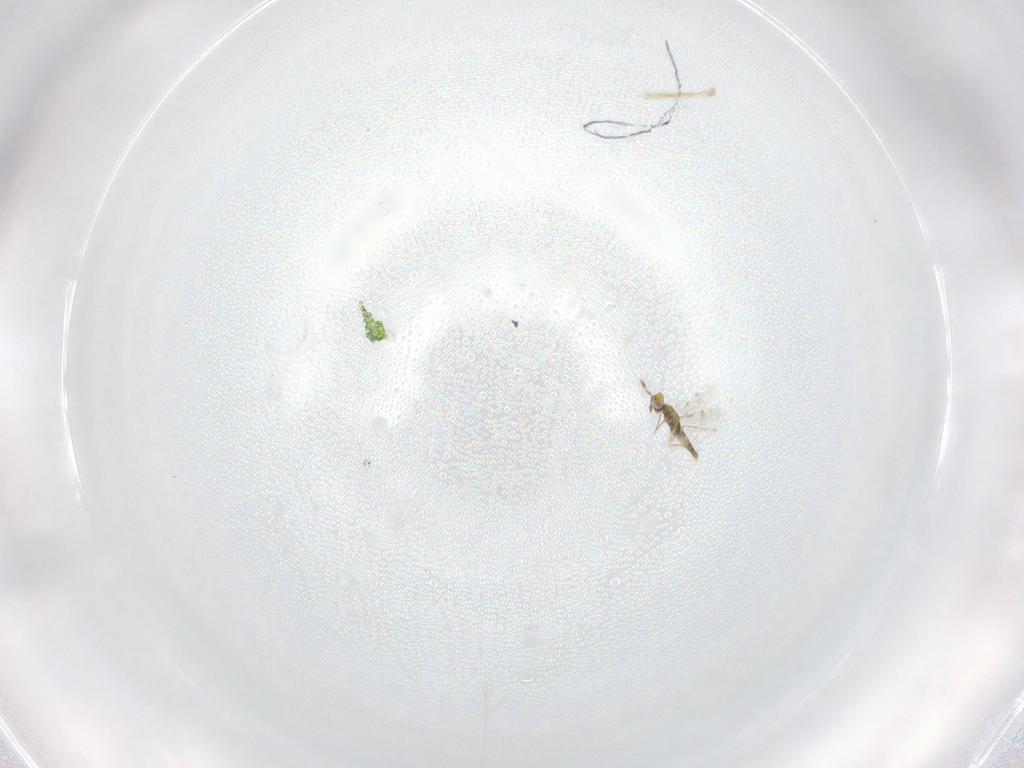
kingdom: Animalia
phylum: Arthropoda
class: Insecta
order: Hymenoptera
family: Eulophidae
